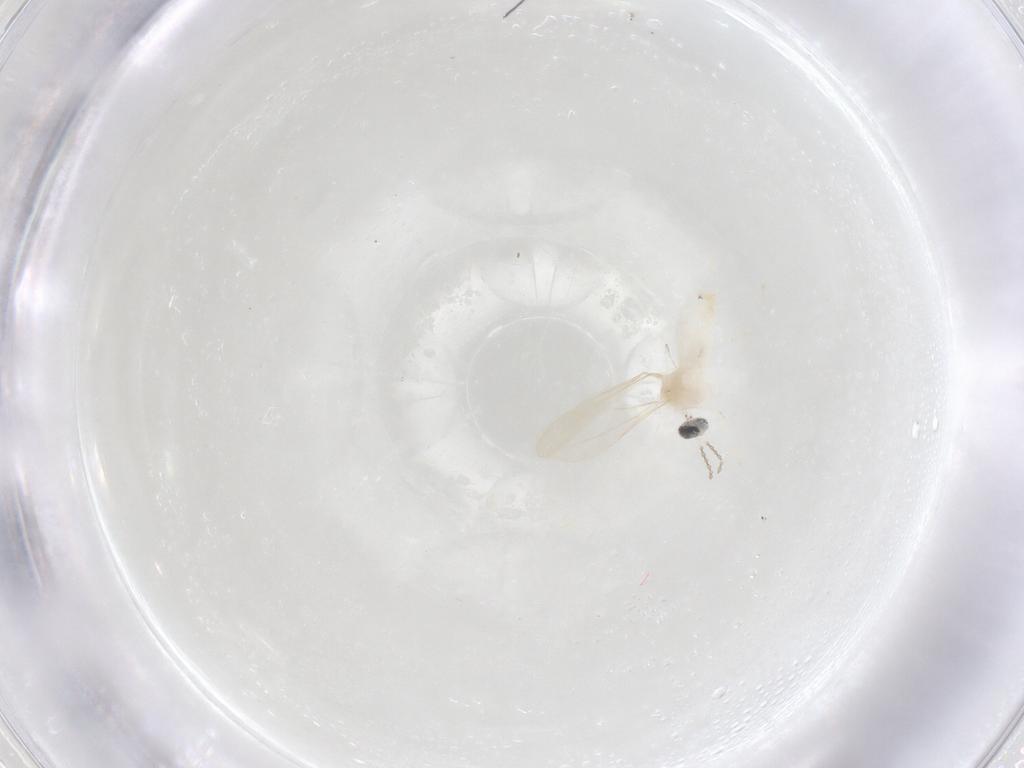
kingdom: Animalia
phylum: Arthropoda
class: Insecta
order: Diptera
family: Cecidomyiidae
